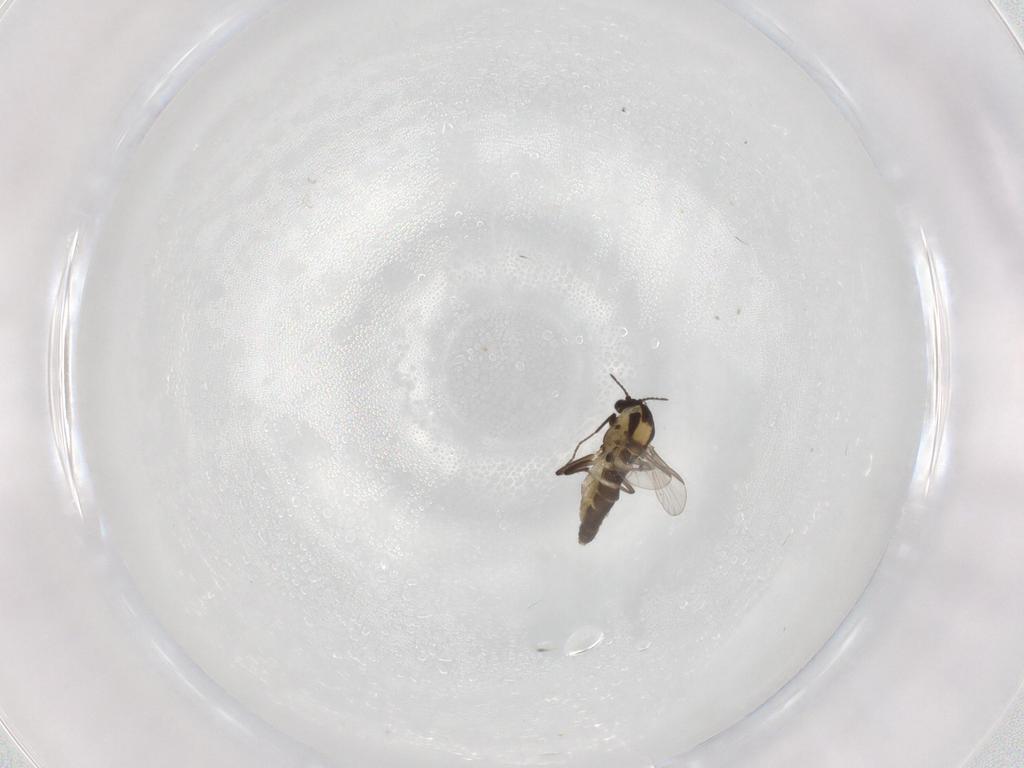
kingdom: Animalia
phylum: Arthropoda
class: Insecta
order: Diptera
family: Chironomidae
